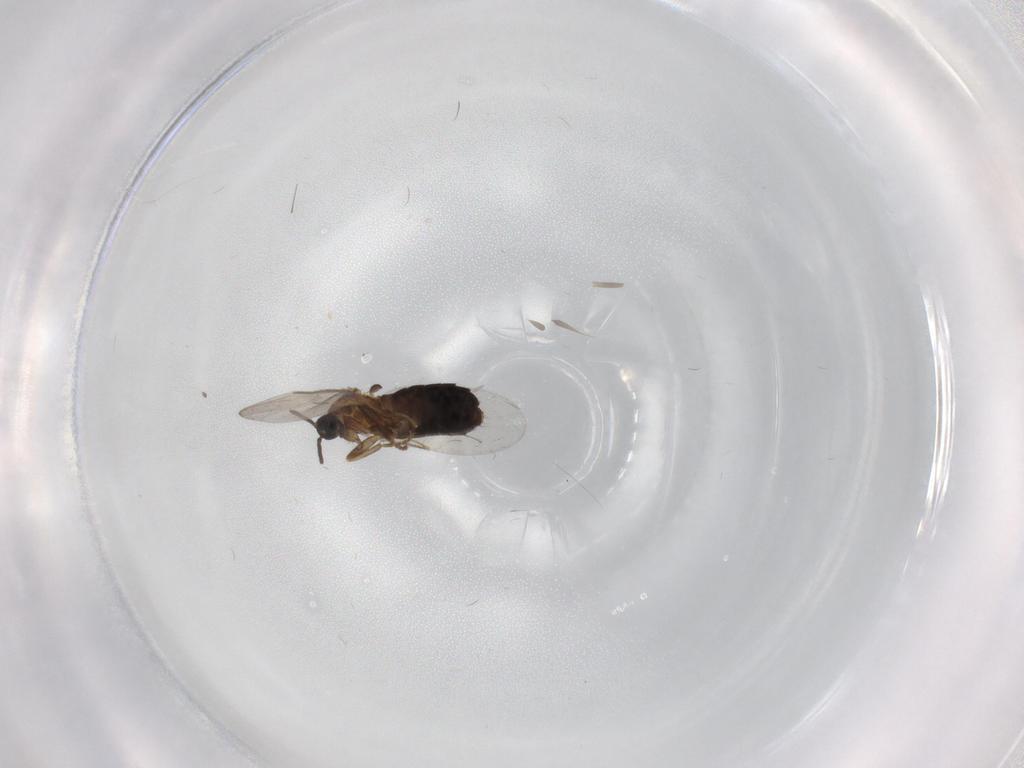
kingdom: Animalia
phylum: Arthropoda
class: Insecta
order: Diptera
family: Scatopsidae
